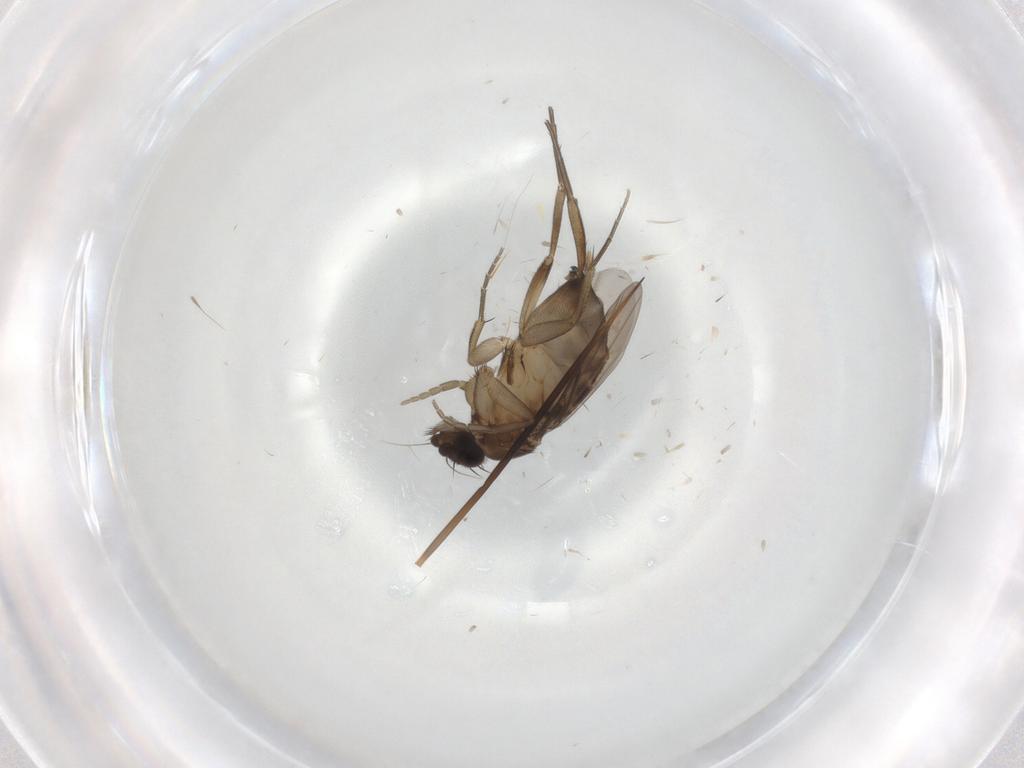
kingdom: Animalia
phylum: Arthropoda
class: Insecta
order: Diptera
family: Phoridae
